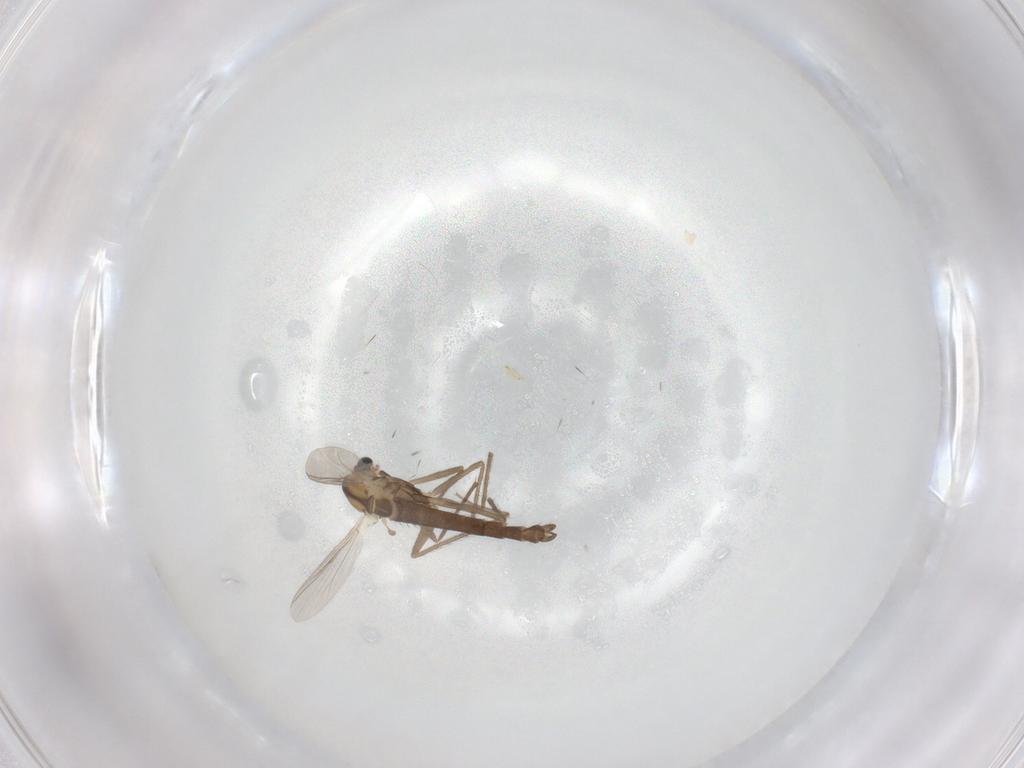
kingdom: Animalia
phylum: Arthropoda
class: Insecta
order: Diptera
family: Chironomidae
